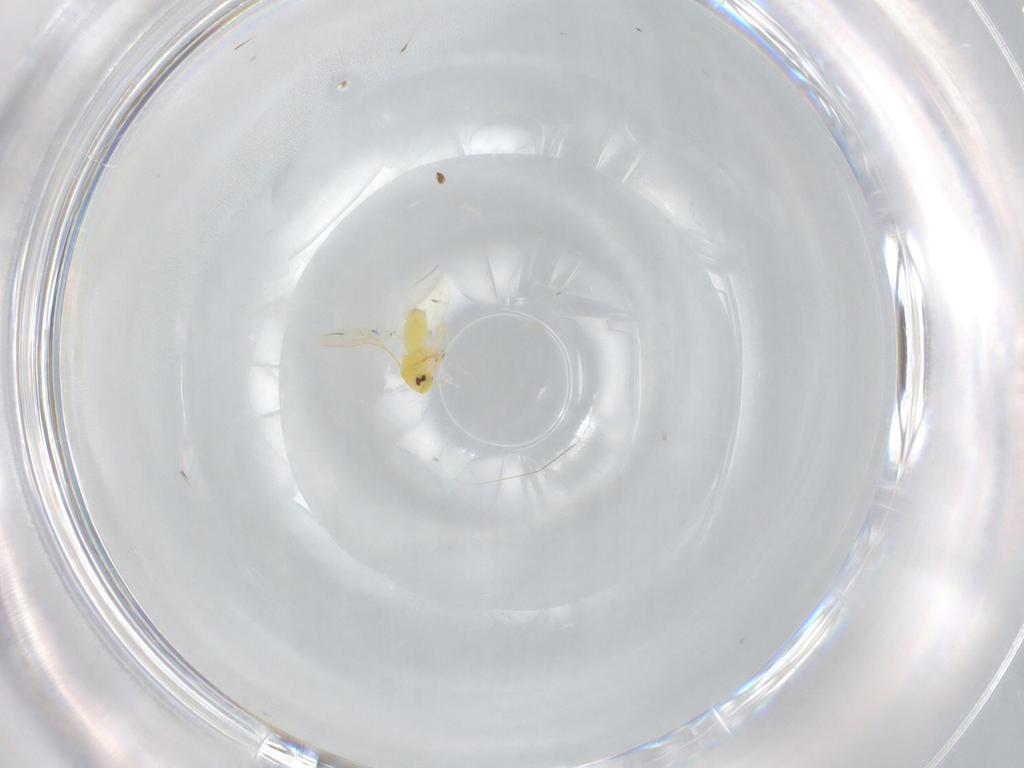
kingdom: Animalia
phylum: Arthropoda
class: Insecta
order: Hemiptera
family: Aleyrodidae
